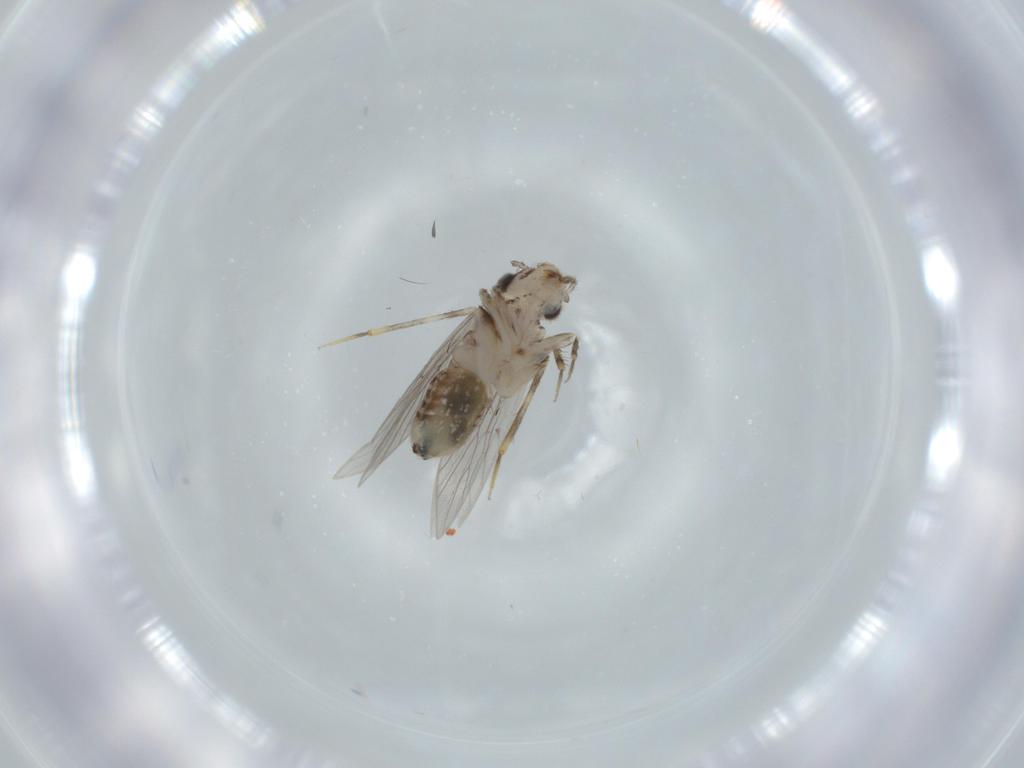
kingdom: Animalia
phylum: Arthropoda
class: Insecta
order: Psocodea
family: Lepidopsocidae
